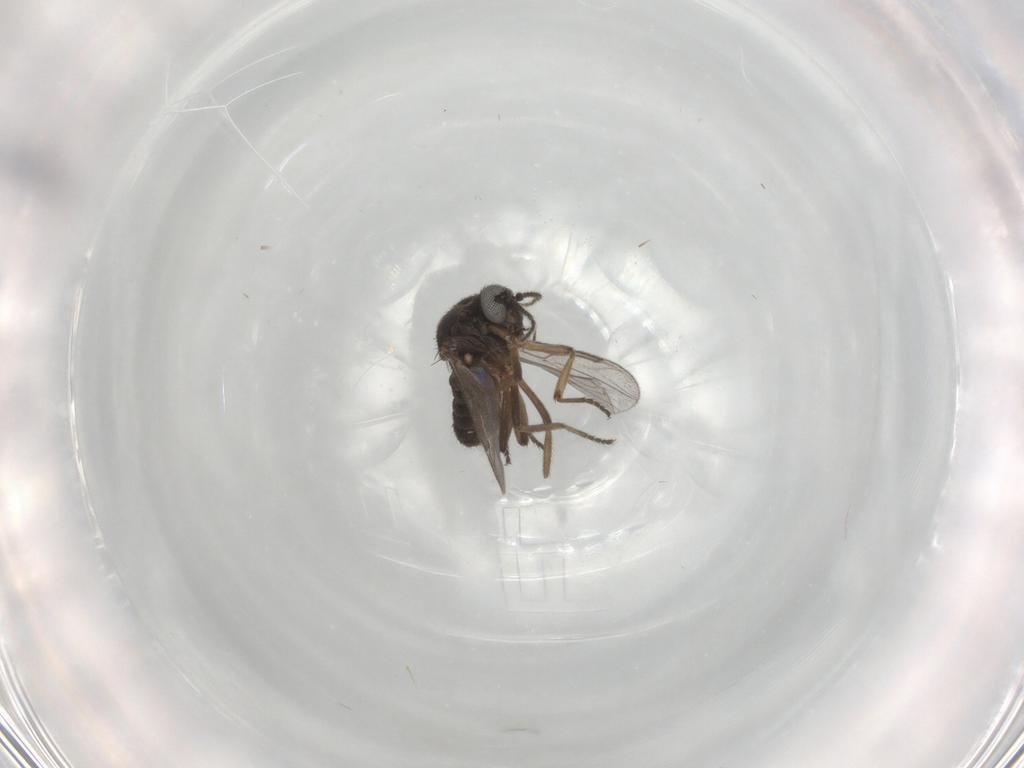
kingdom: Animalia
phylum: Arthropoda
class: Insecta
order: Diptera
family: Ceratopogonidae
